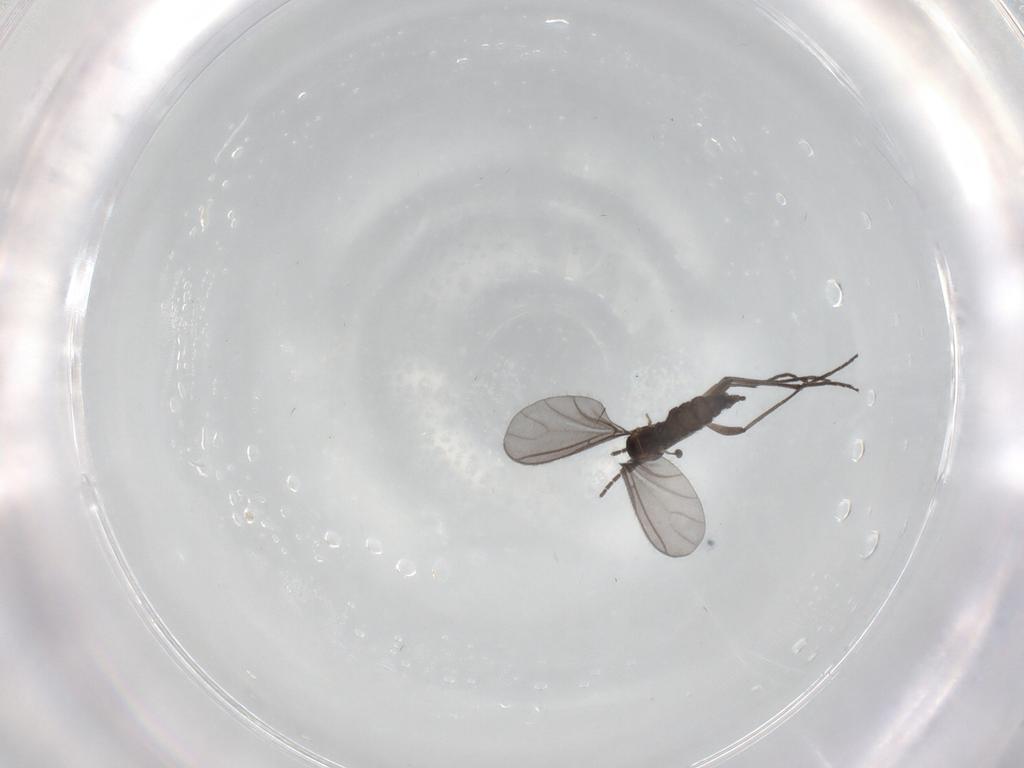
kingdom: Animalia
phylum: Arthropoda
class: Insecta
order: Diptera
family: Sciaridae
